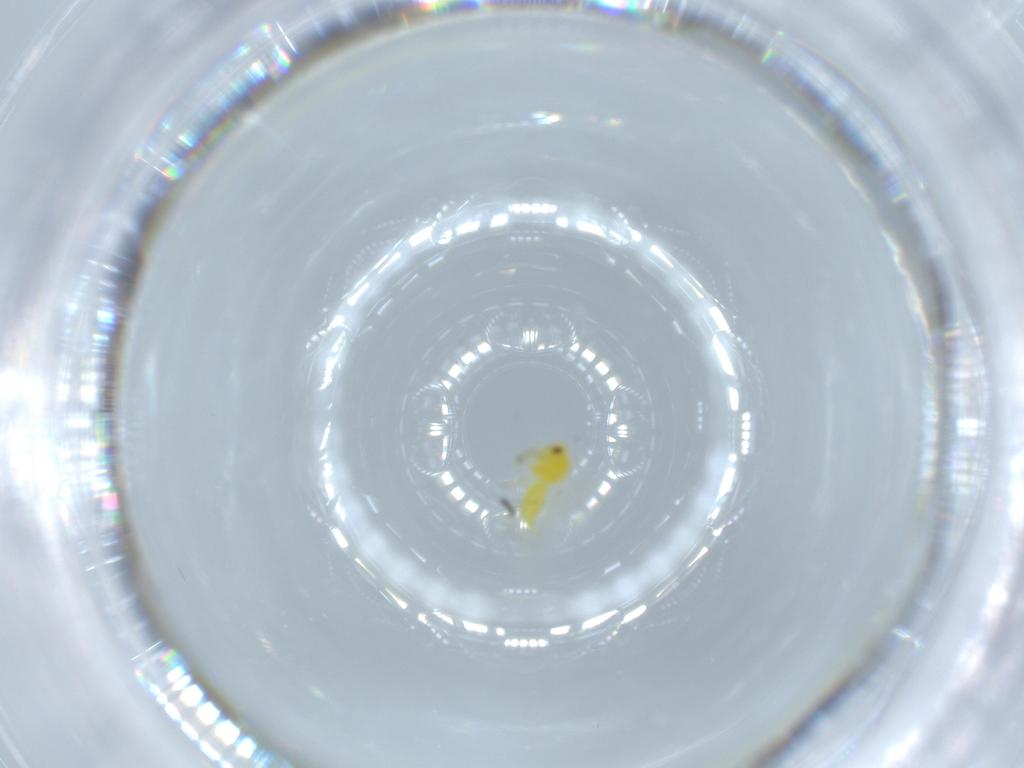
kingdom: Animalia
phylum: Arthropoda
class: Insecta
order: Hemiptera
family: Aleyrodidae
